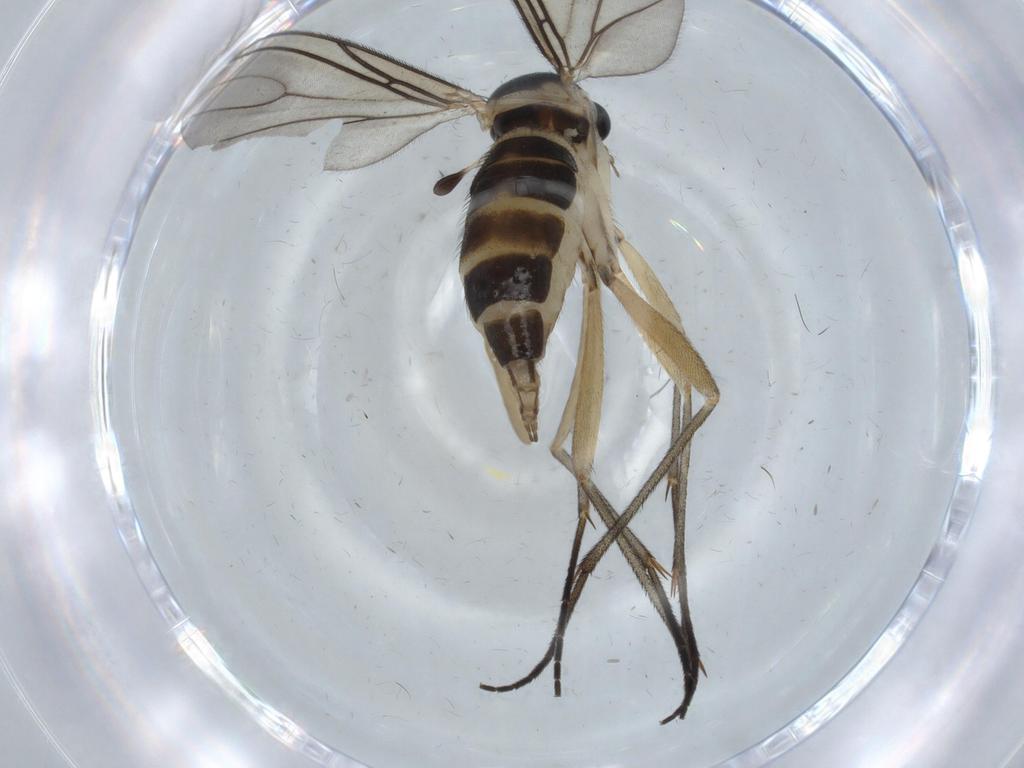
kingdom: Animalia
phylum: Arthropoda
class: Insecta
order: Diptera
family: Sciaridae
